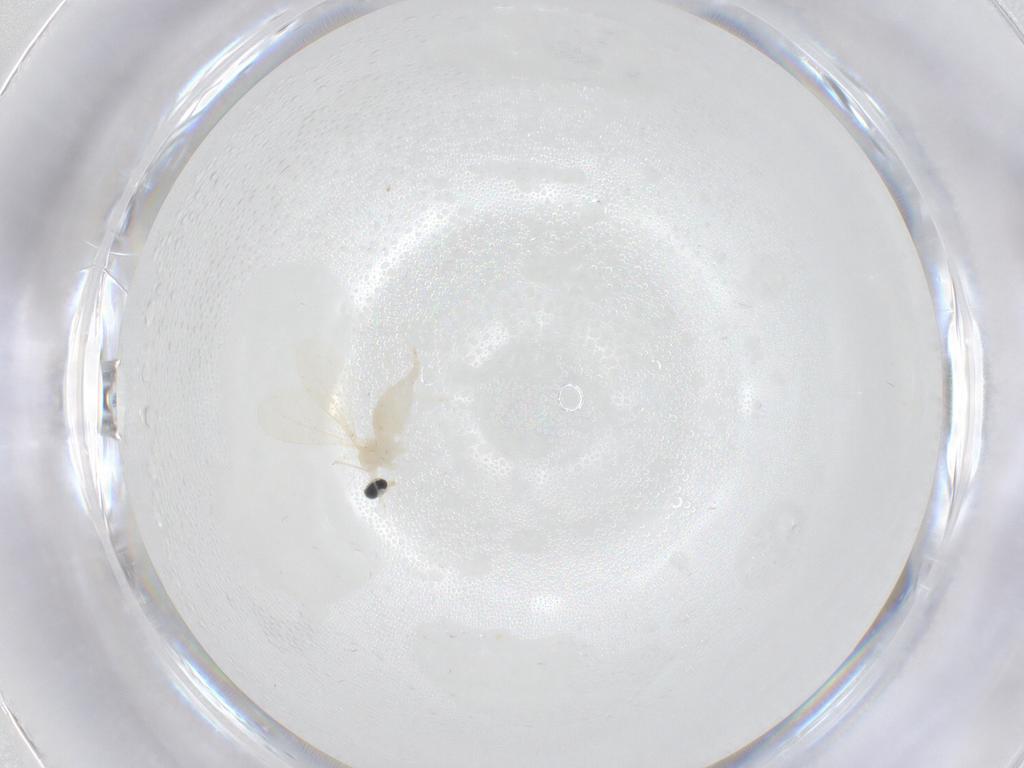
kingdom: Animalia
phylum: Arthropoda
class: Insecta
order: Diptera
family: Cecidomyiidae
